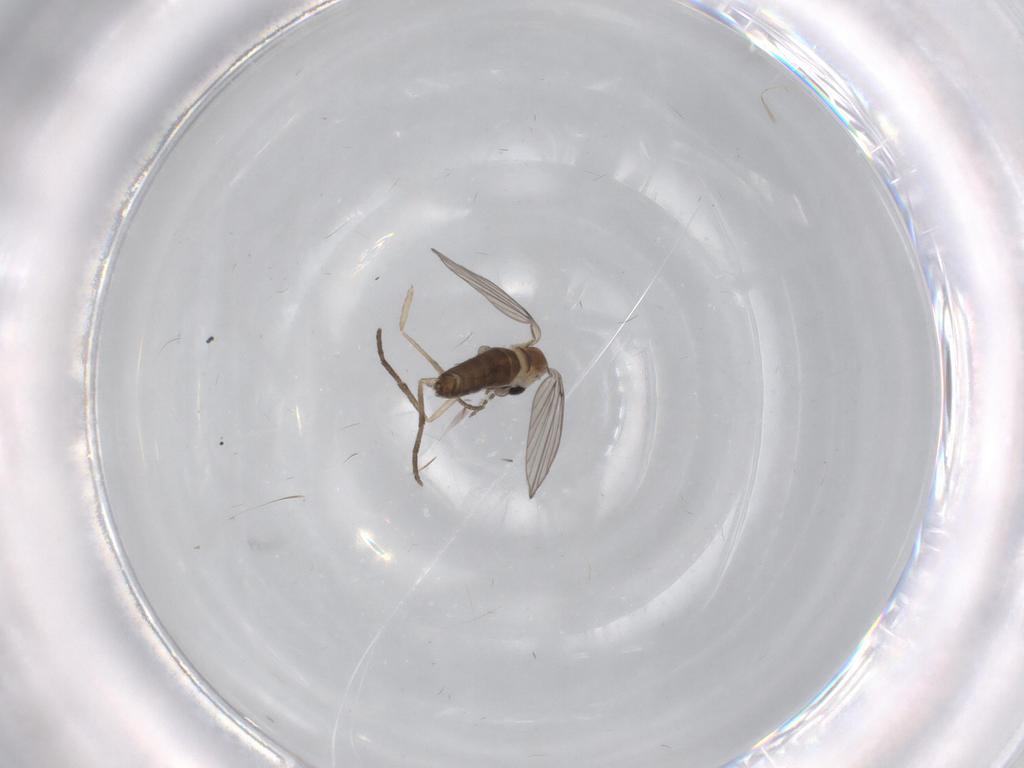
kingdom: Animalia
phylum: Arthropoda
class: Insecta
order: Diptera
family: Psychodidae
